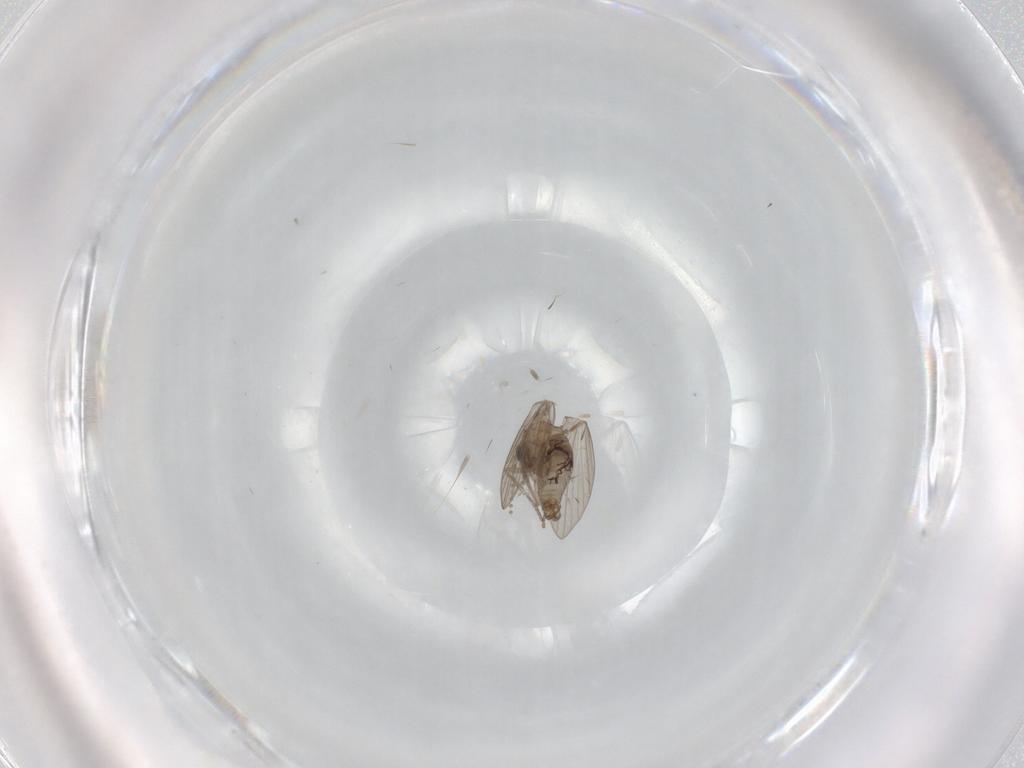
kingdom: Animalia
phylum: Arthropoda
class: Insecta
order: Diptera
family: Psychodidae
